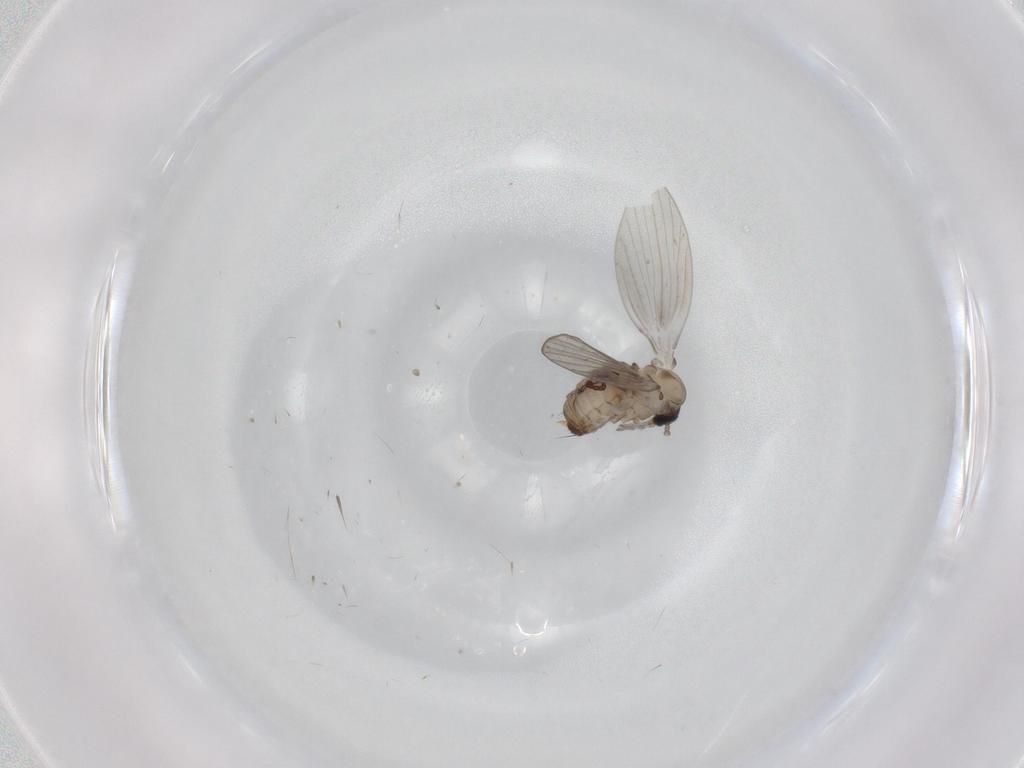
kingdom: Animalia
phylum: Arthropoda
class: Insecta
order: Diptera
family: Psychodidae
